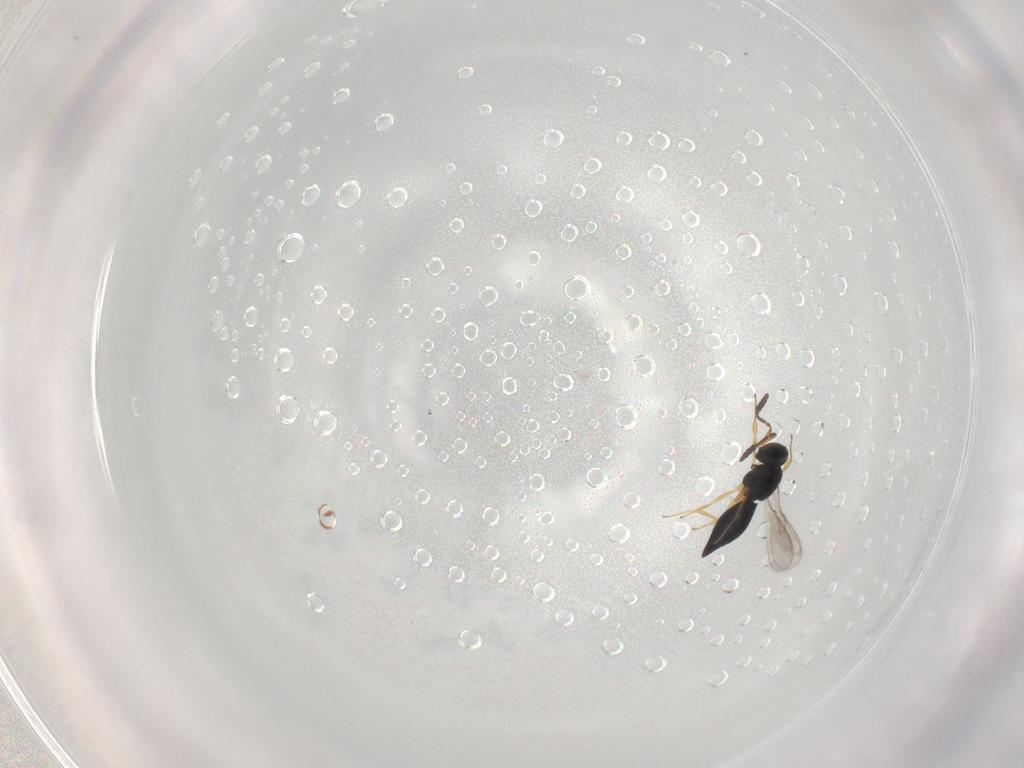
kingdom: Animalia
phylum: Arthropoda
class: Insecta
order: Hymenoptera
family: Scelionidae
